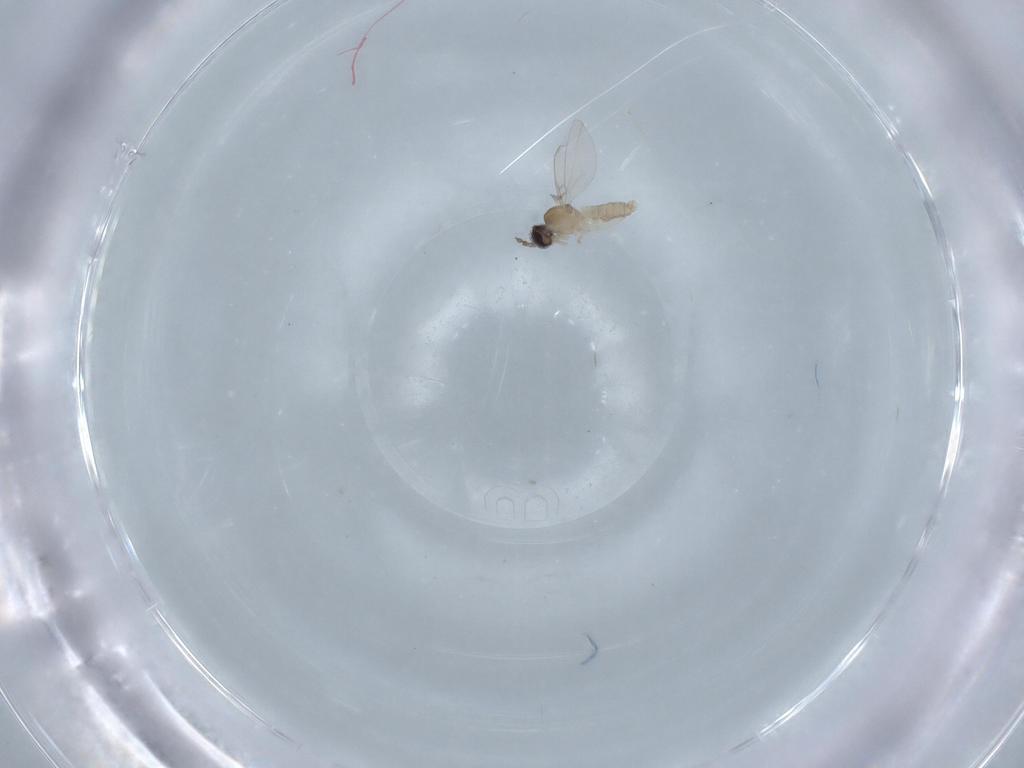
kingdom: Animalia
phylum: Arthropoda
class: Insecta
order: Diptera
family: Cecidomyiidae
